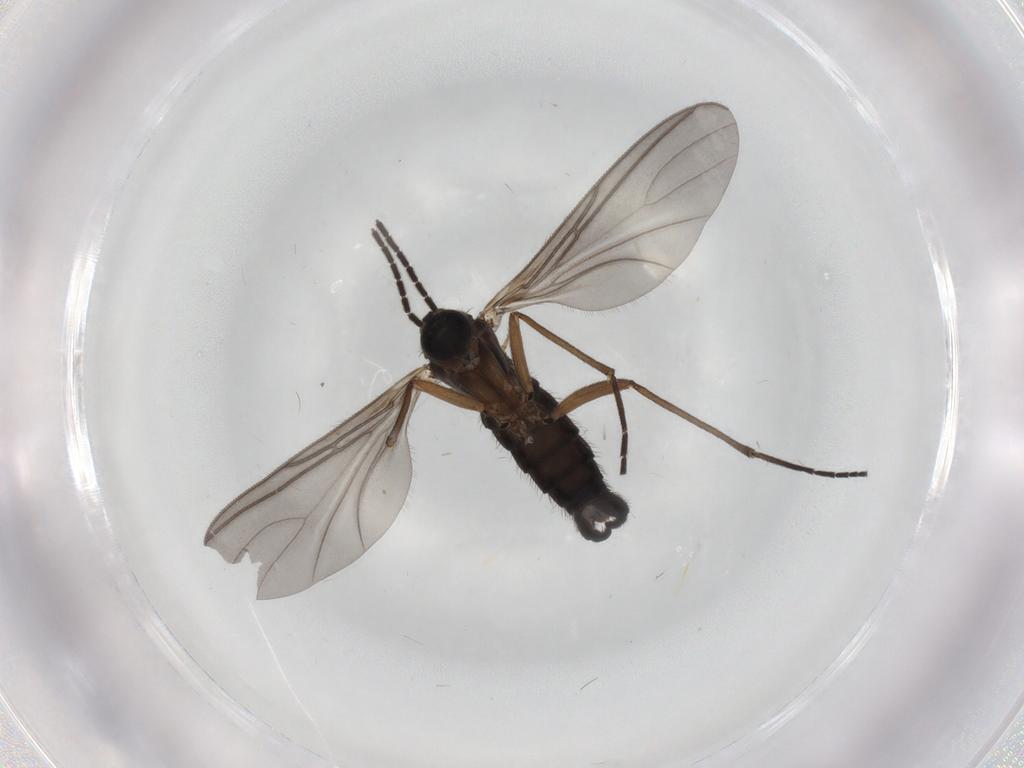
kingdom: Animalia
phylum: Arthropoda
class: Insecta
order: Diptera
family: Sciaridae
